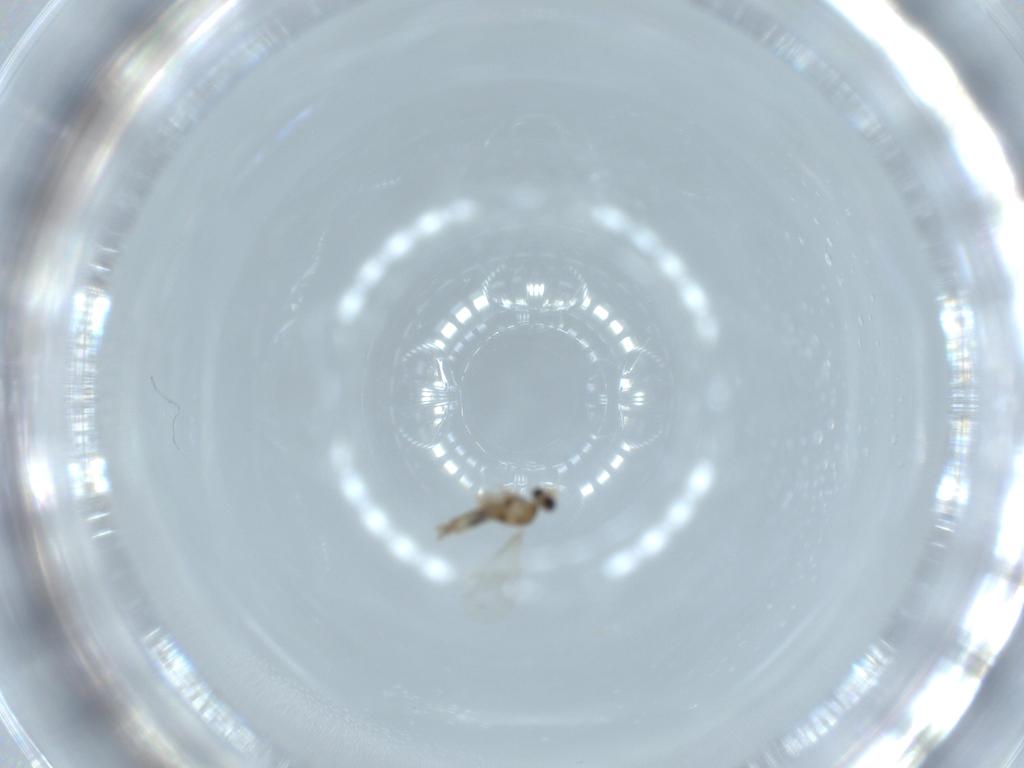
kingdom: Animalia
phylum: Arthropoda
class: Insecta
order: Diptera
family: Cecidomyiidae
